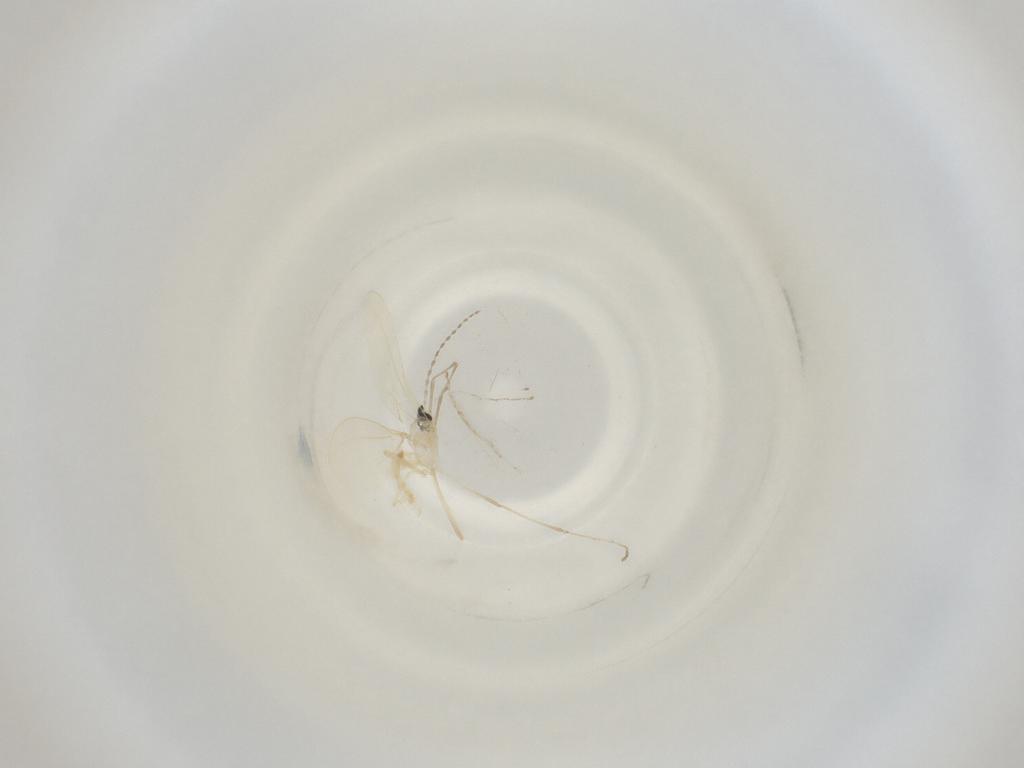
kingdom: Animalia
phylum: Arthropoda
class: Insecta
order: Diptera
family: Cecidomyiidae
